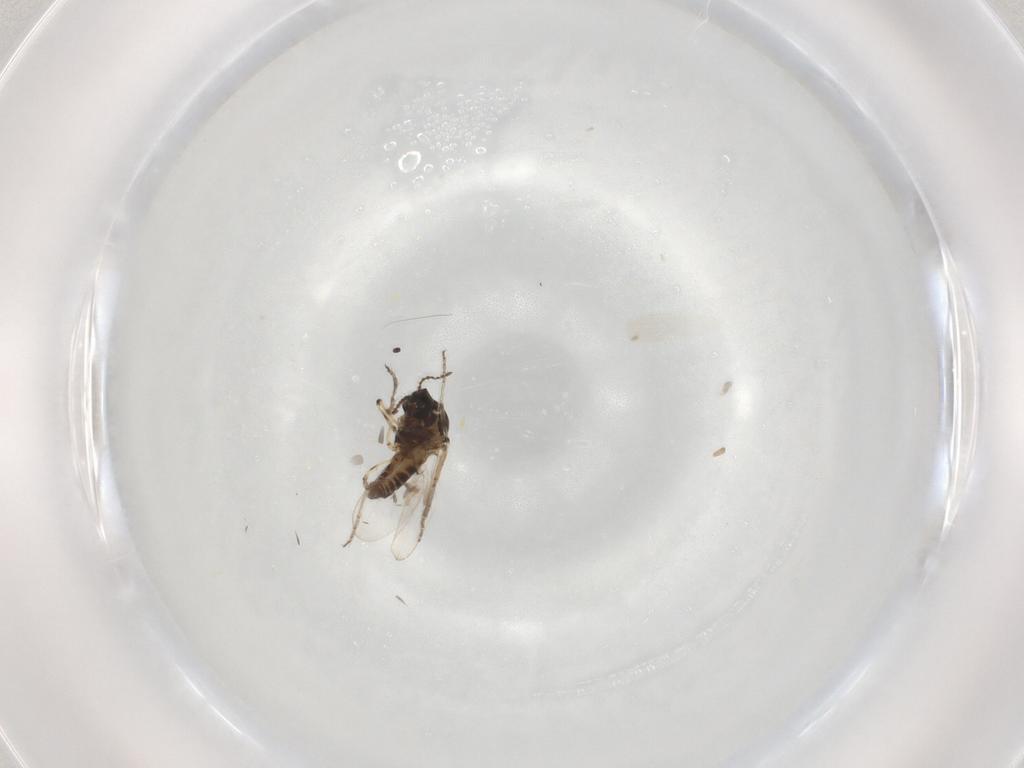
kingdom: Animalia
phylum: Arthropoda
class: Insecta
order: Diptera
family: Ceratopogonidae
